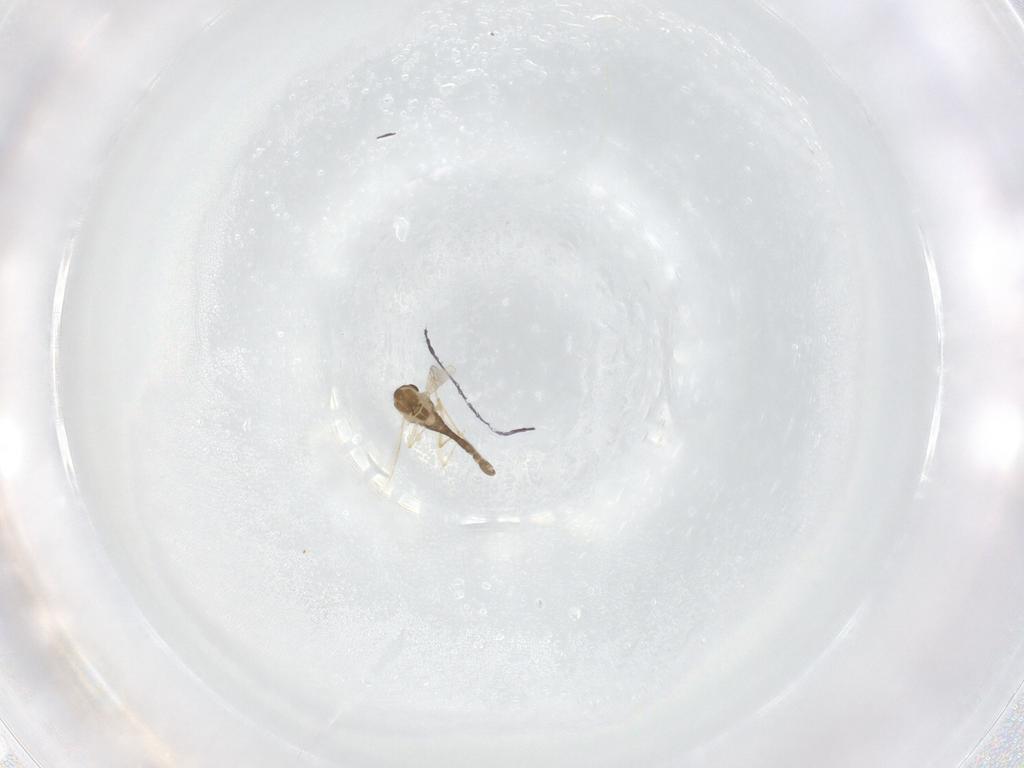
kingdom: Animalia
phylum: Arthropoda
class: Insecta
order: Diptera
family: Chironomidae
